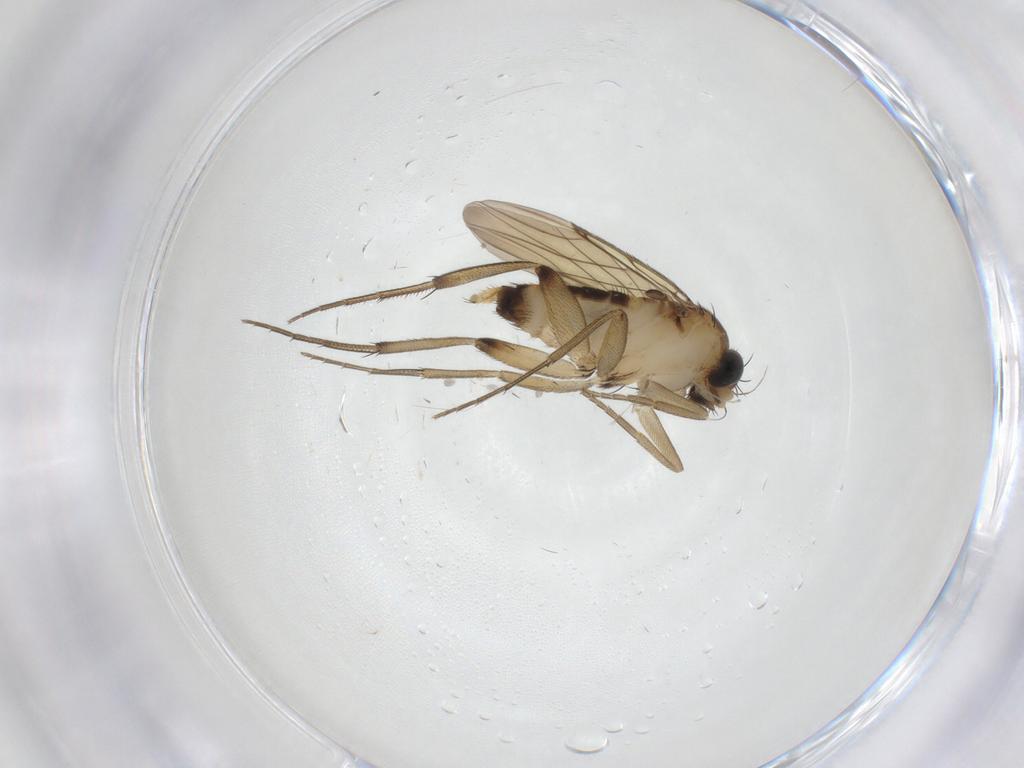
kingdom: Animalia
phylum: Arthropoda
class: Insecta
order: Diptera
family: Cecidomyiidae
